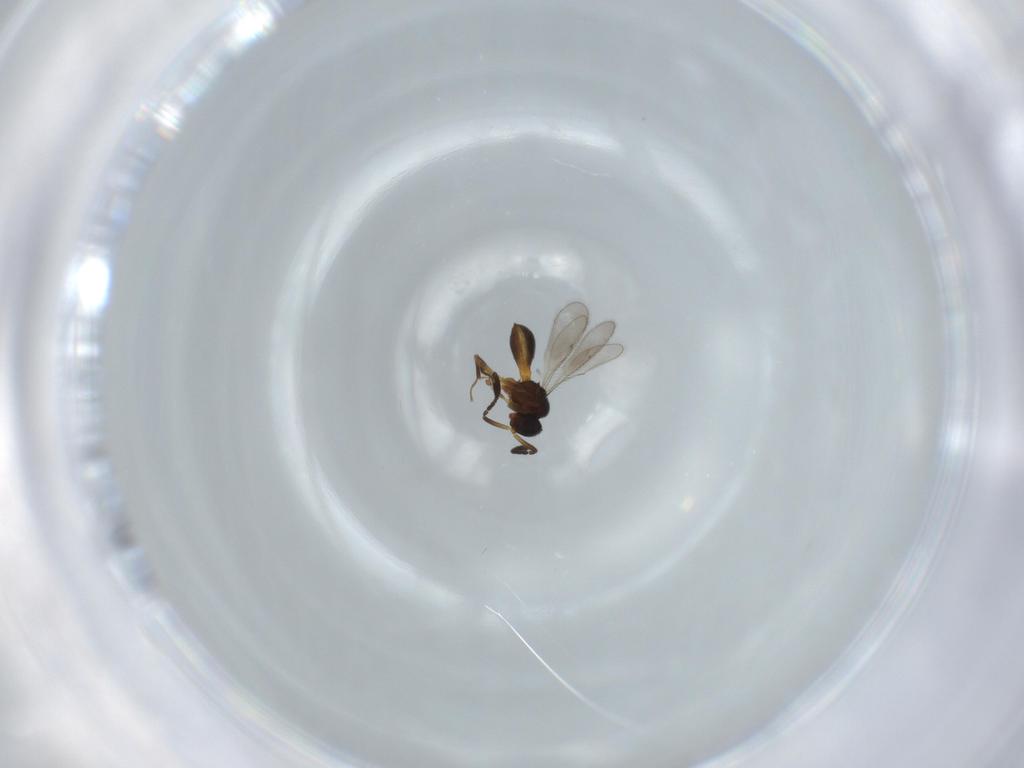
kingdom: Animalia
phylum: Arthropoda
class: Insecta
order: Hymenoptera
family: Scelionidae
